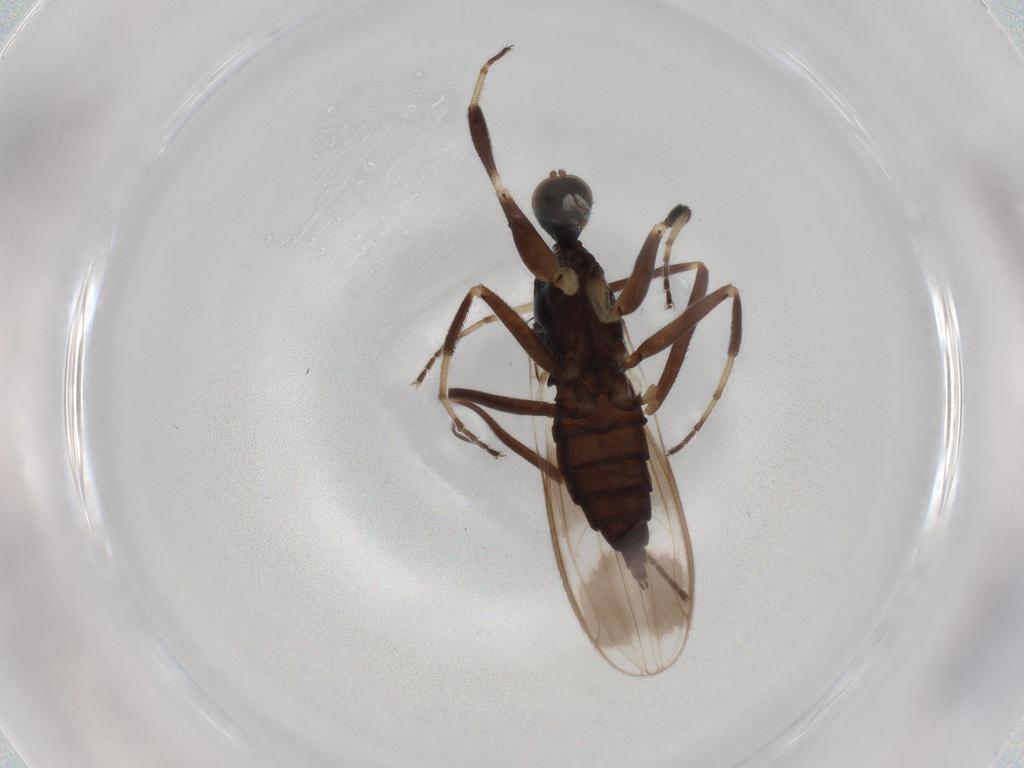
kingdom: Animalia
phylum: Arthropoda
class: Insecta
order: Diptera
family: Hybotidae
